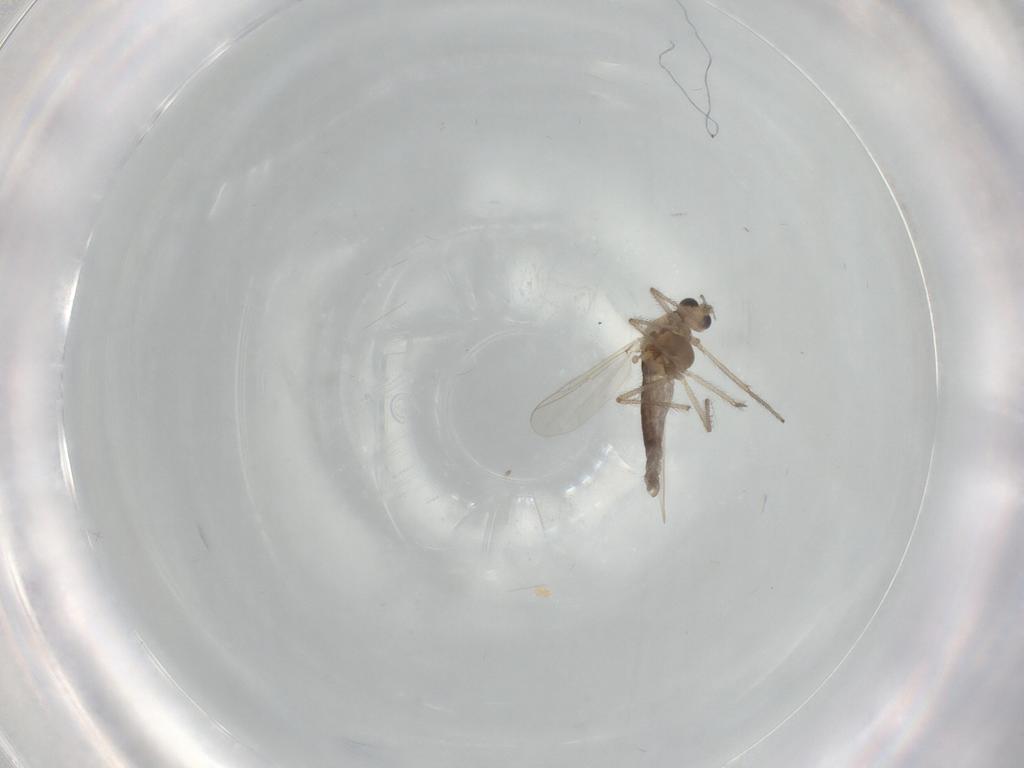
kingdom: Animalia
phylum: Arthropoda
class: Insecta
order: Diptera
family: Chironomidae
